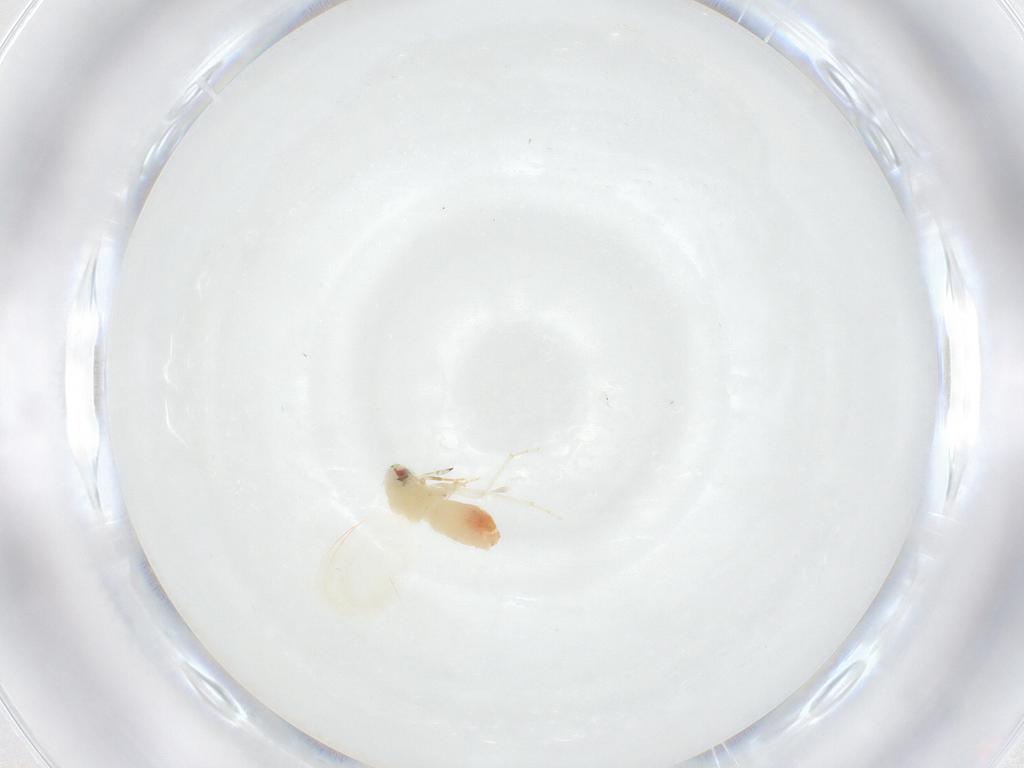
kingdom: Animalia
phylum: Arthropoda
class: Insecta
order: Hemiptera
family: Aleyrodidae
